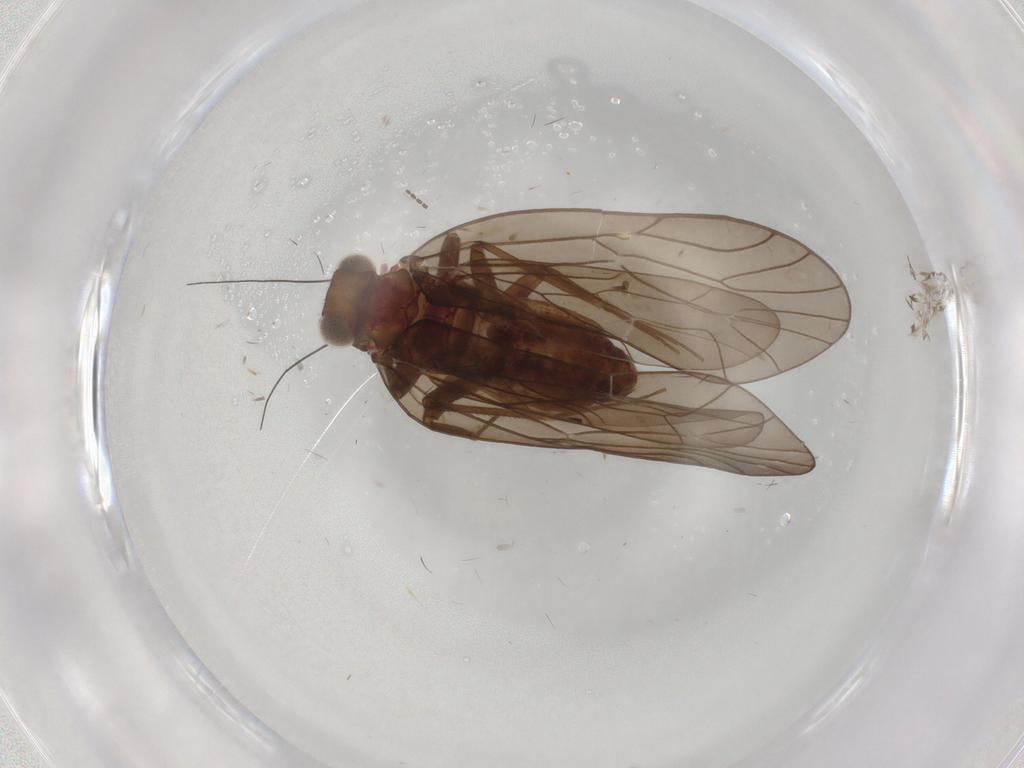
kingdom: Animalia
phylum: Arthropoda
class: Insecta
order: Psocodea
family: Philotarsidae
